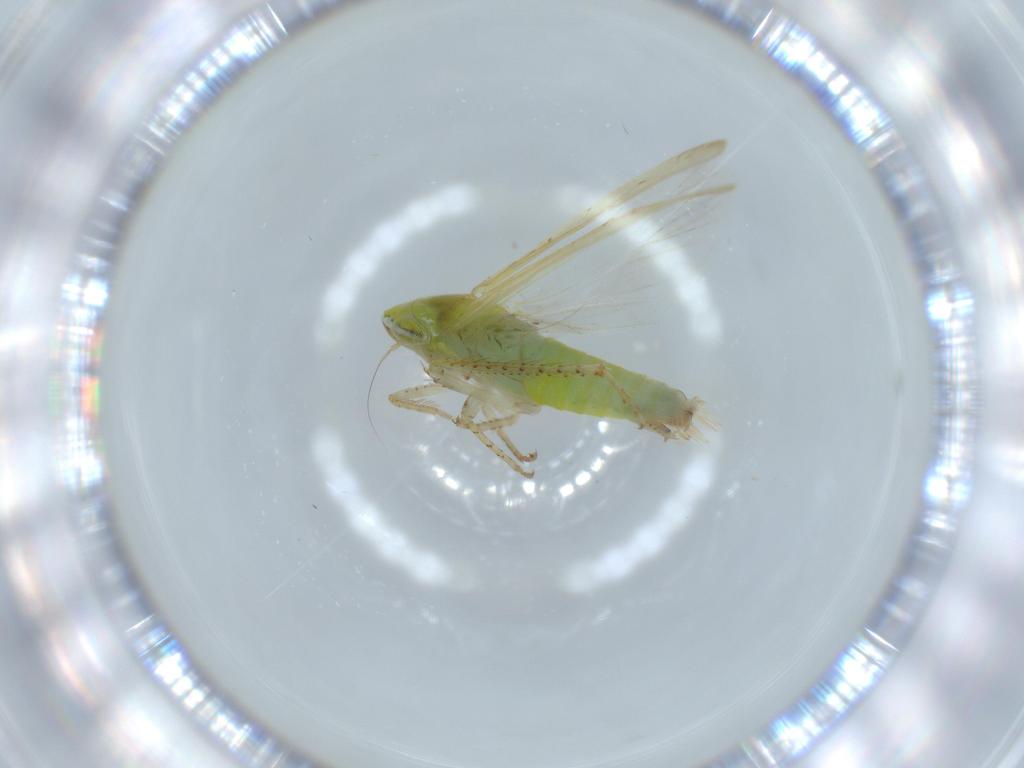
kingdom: Animalia
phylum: Arthropoda
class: Insecta
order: Hemiptera
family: Cicadellidae
